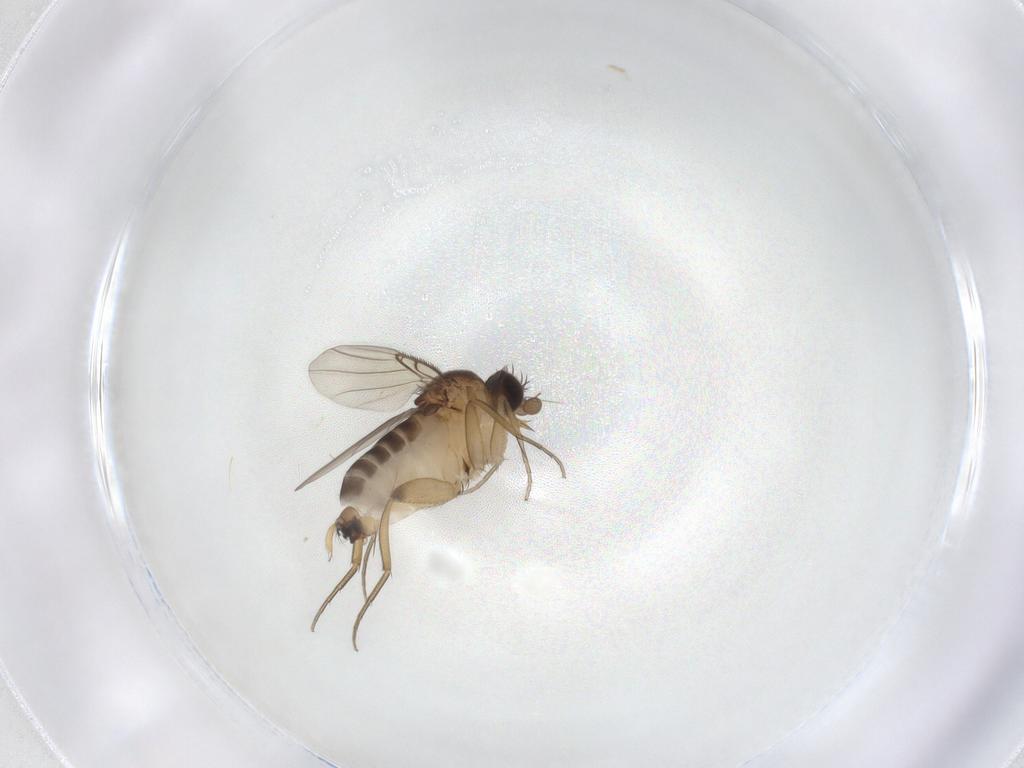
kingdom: Animalia
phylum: Arthropoda
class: Insecta
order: Diptera
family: Phoridae
